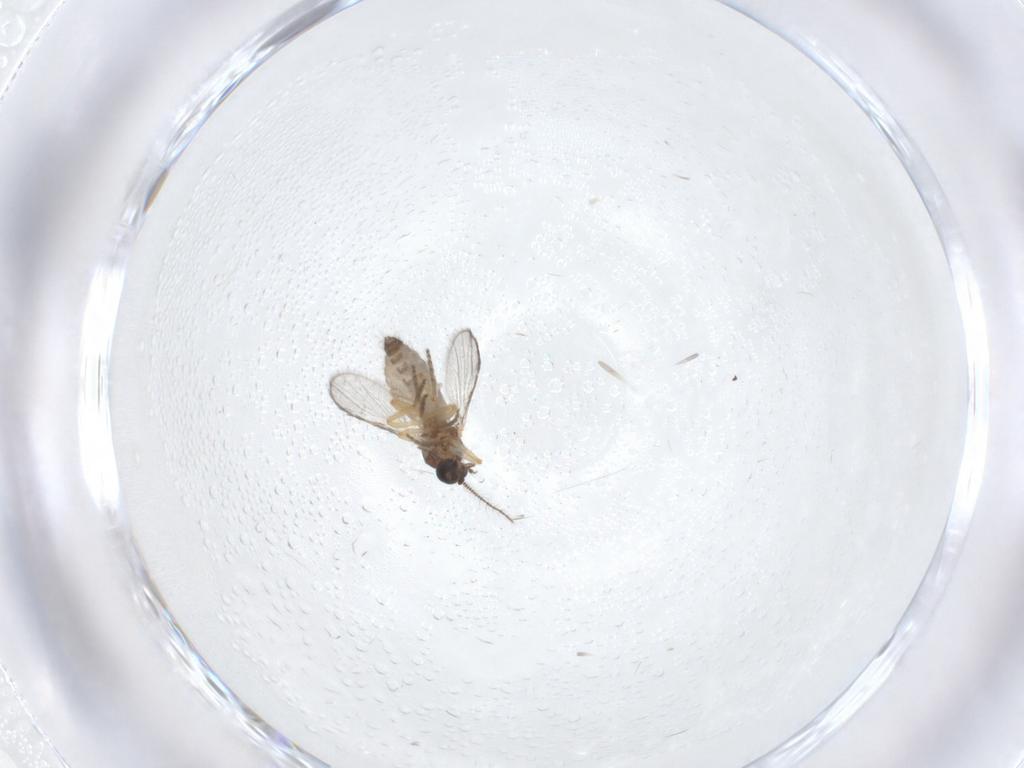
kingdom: Animalia
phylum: Arthropoda
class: Insecta
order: Diptera
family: Ceratopogonidae
